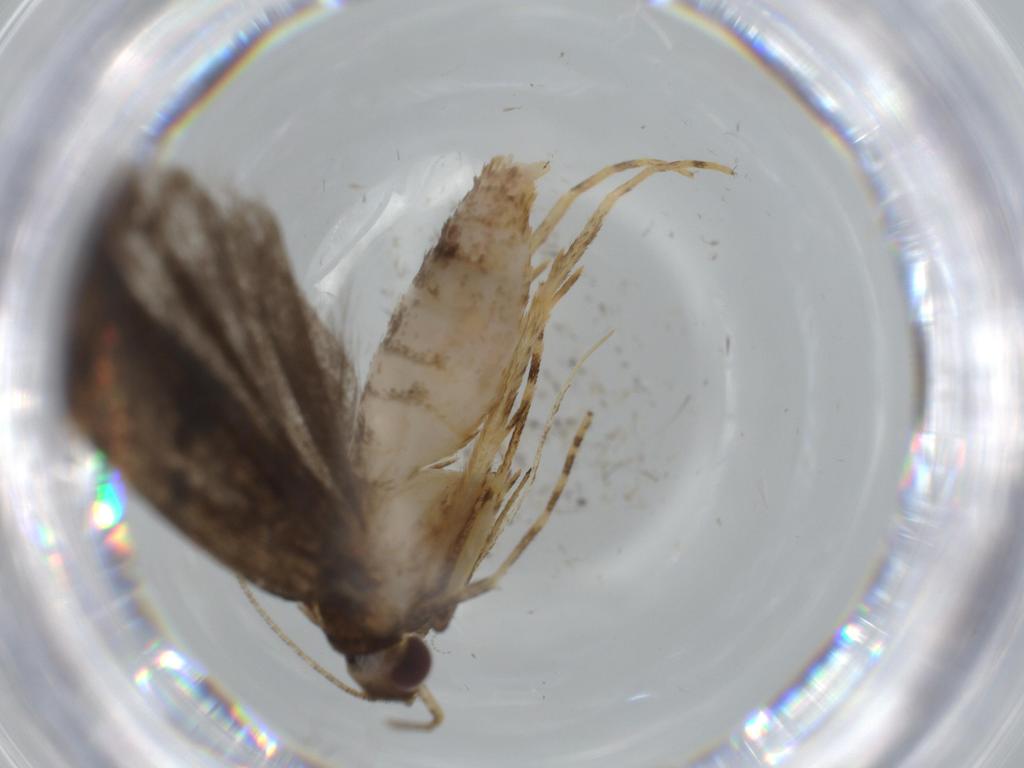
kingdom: Animalia
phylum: Arthropoda
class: Insecta
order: Lepidoptera
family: Autostichidae
